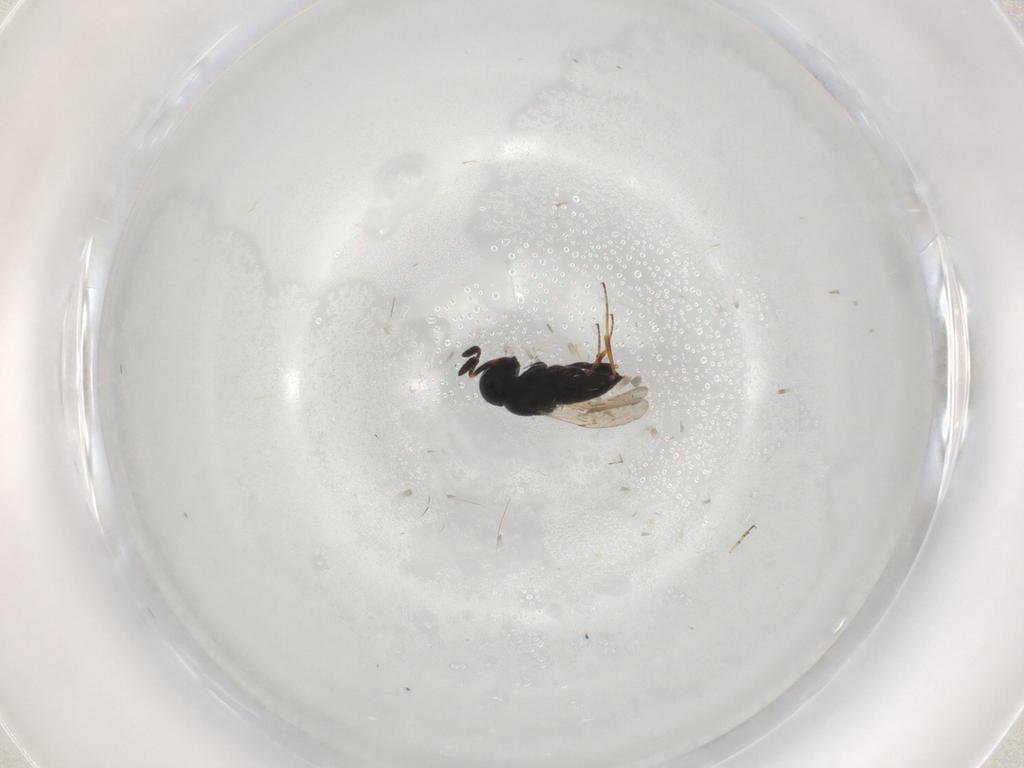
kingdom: Animalia
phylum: Arthropoda
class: Insecta
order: Hymenoptera
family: Scelionidae
